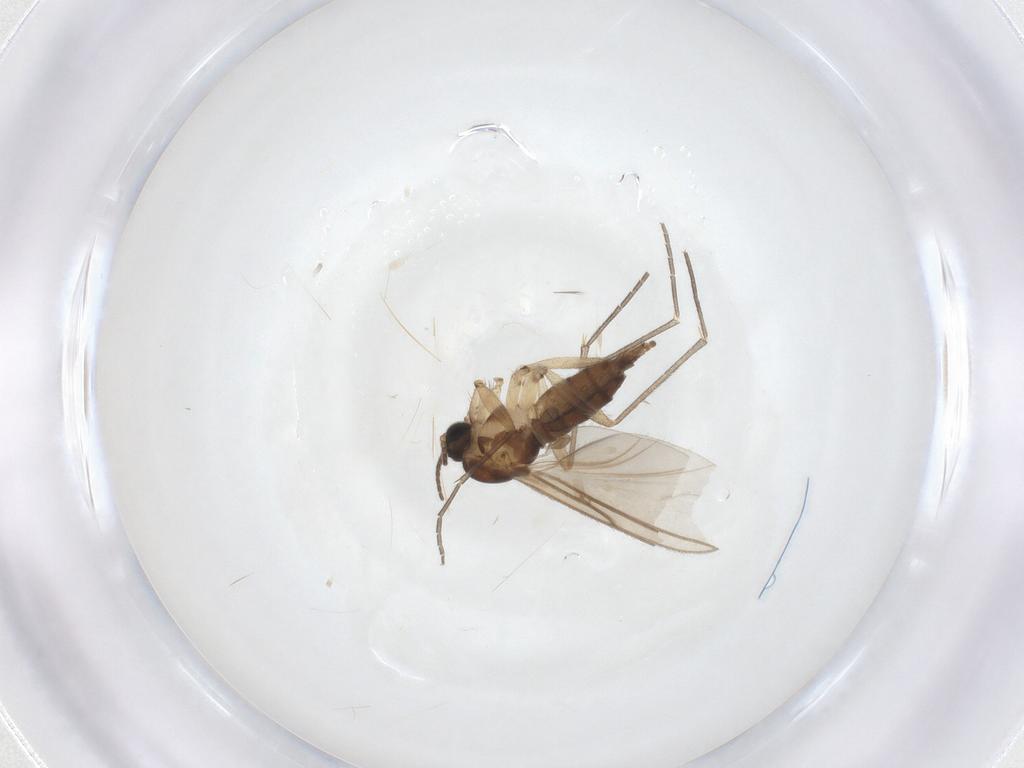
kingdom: Animalia
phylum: Arthropoda
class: Insecta
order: Diptera
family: Sciaridae
